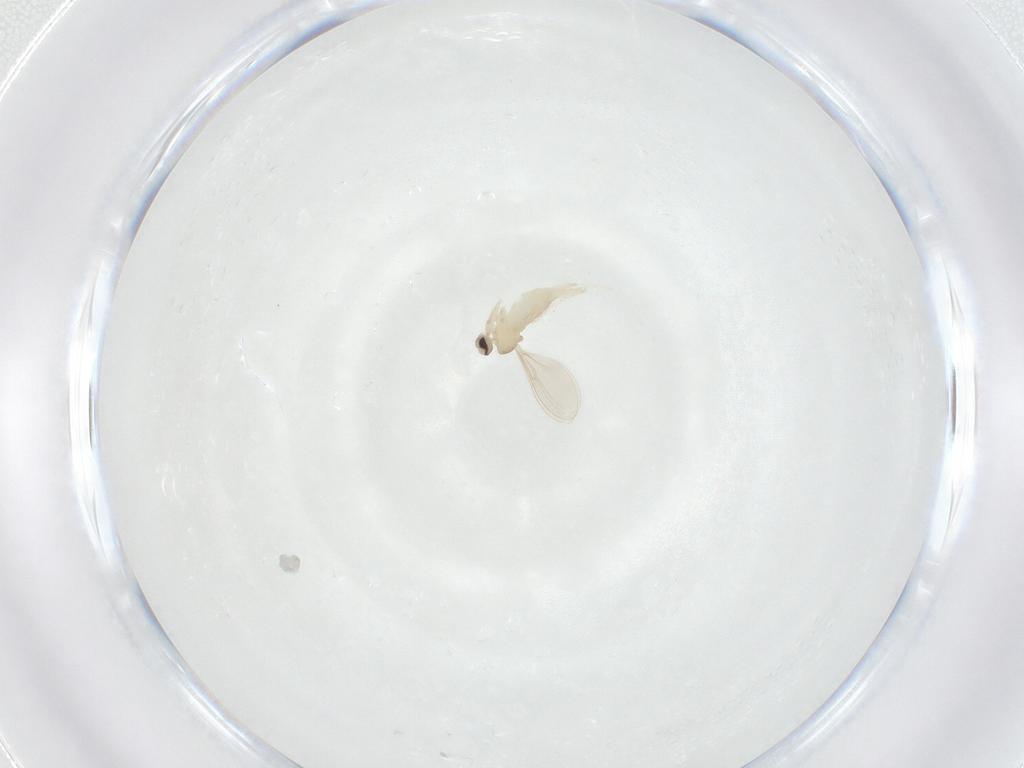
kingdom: Animalia
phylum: Arthropoda
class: Insecta
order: Diptera
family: Cecidomyiidae
